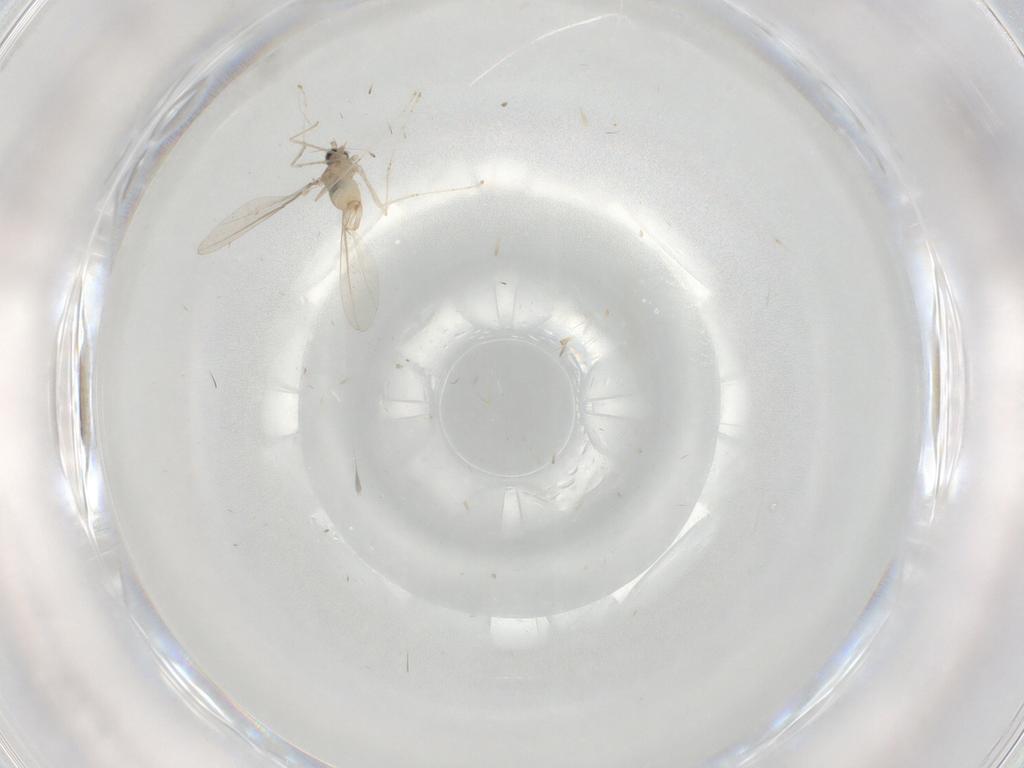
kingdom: Animalia
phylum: Arthropoda
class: Insecta
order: Diptera
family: Cecidomyiidae
